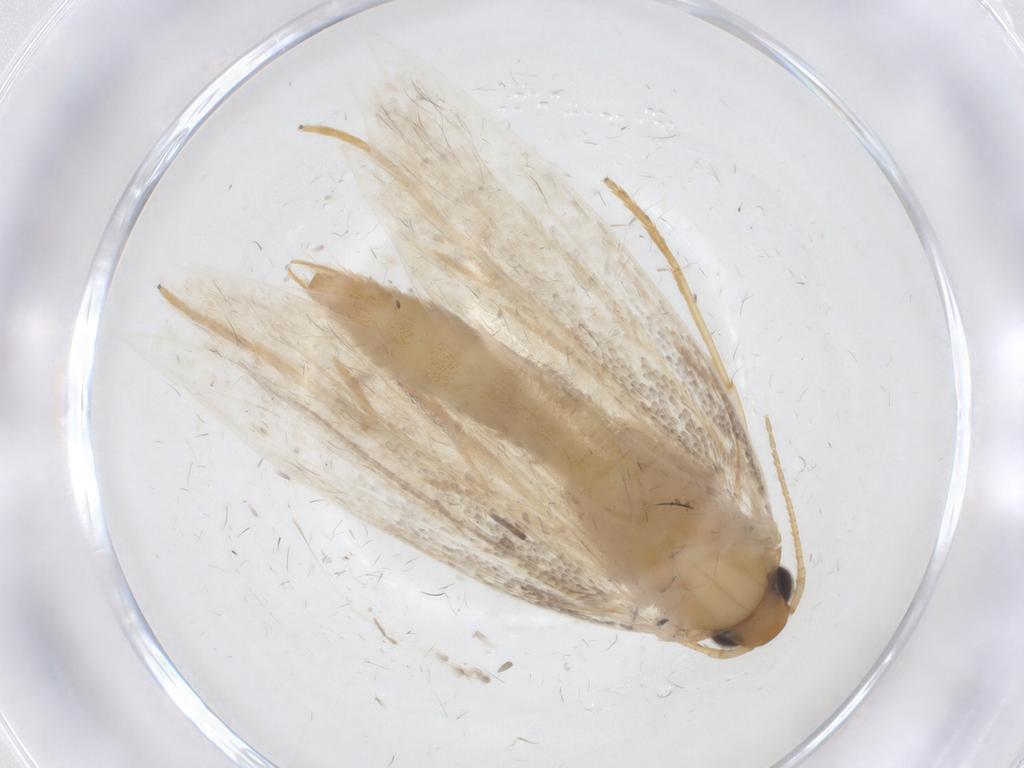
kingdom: Animalia
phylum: Arthropoda
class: Insecta
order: Lepidoptera
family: Oecophoridae
